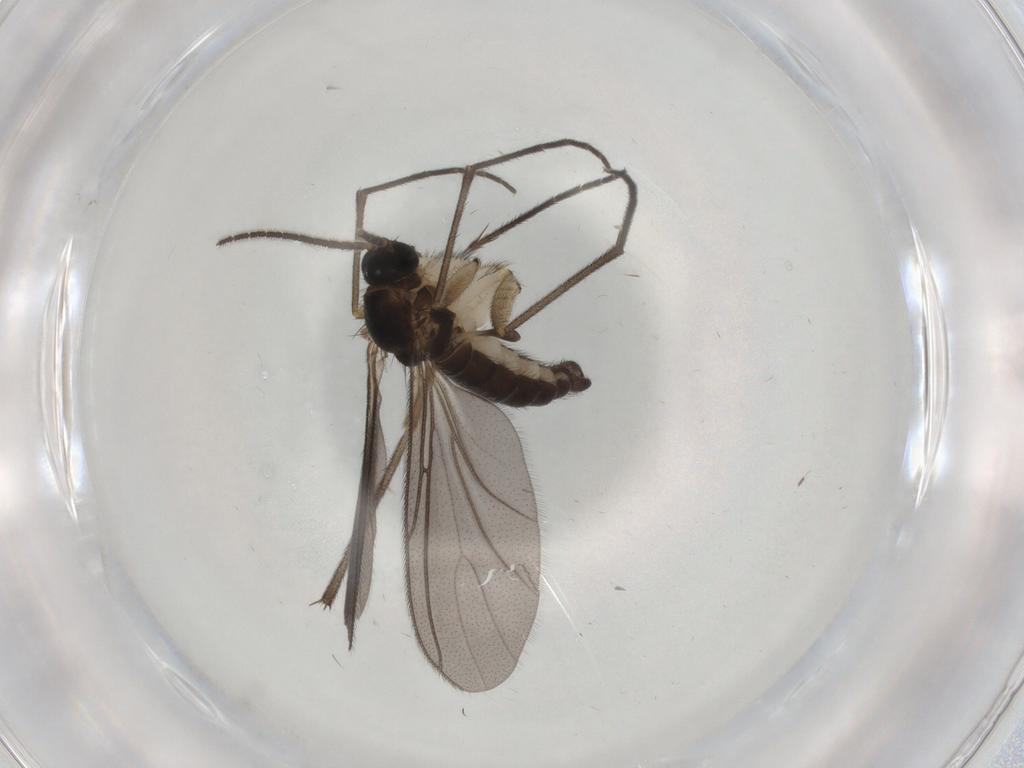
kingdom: Animalia
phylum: Arthropoda
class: Insecta
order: Diptera
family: Sciaridae
